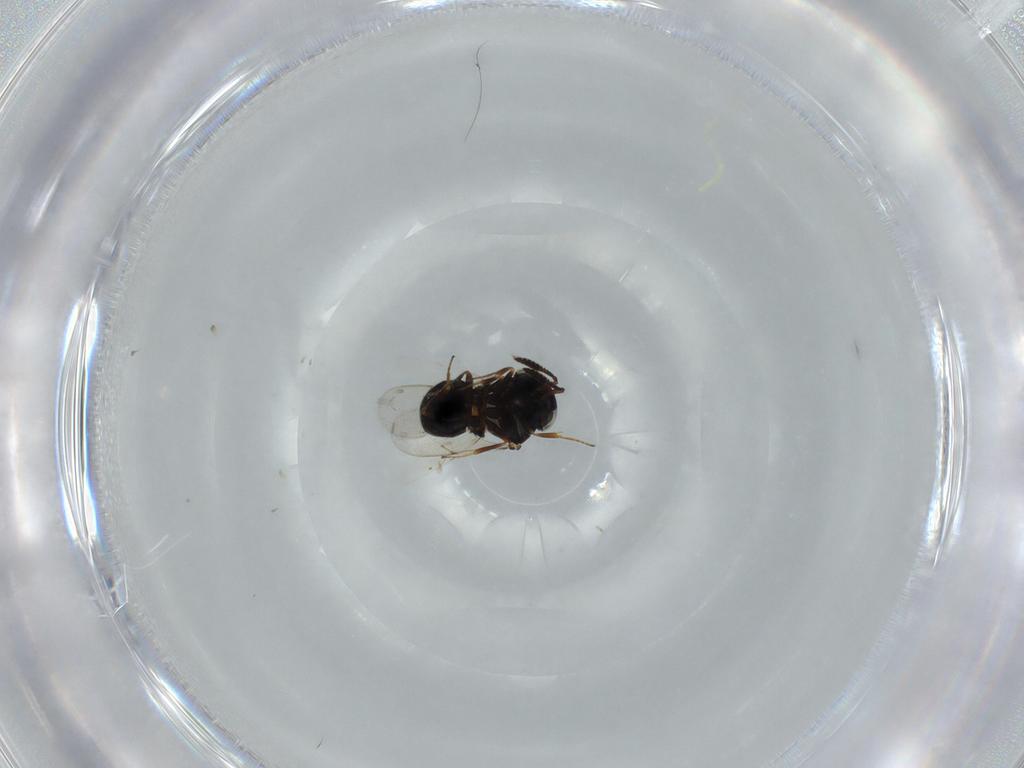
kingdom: Animalia
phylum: Arthropoda
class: Insecta
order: Hymenoptera
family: Scelionidae
